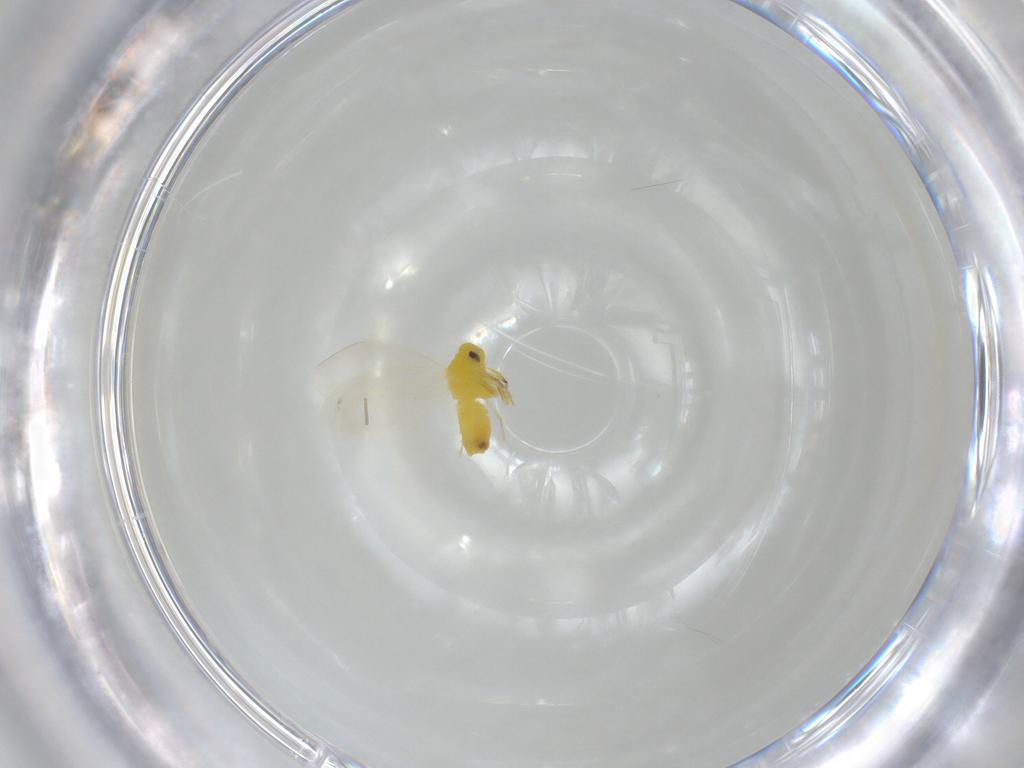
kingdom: Animalia
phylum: Arthropoda
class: Insecta
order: Hemiptera
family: Aleyrodidae
